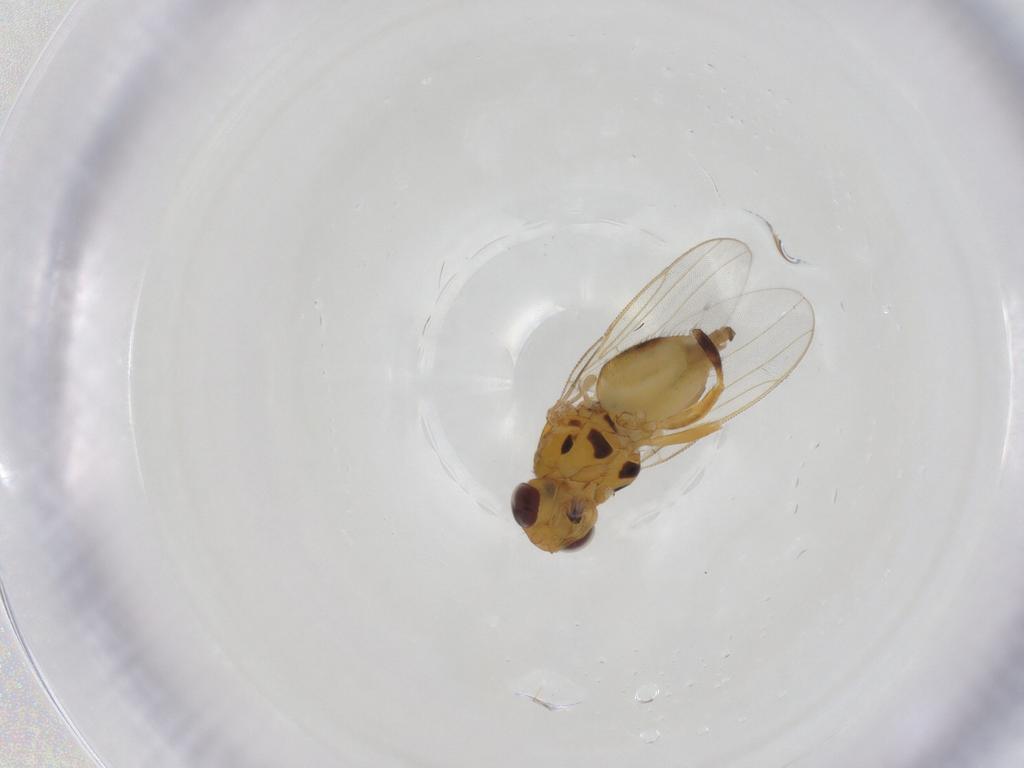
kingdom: Animalia
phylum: Arthropoda
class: Insecta
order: Diptera
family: Chloropidae
